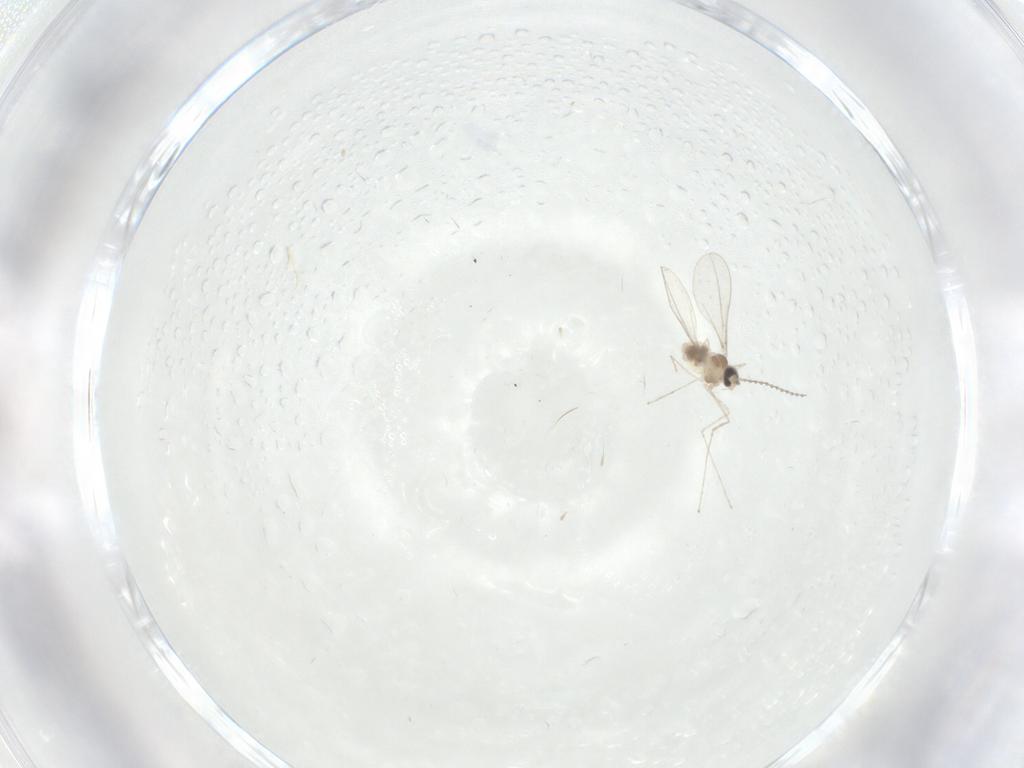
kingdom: Animalia
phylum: Arthropoda
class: Insecta
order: Diptera
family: Cecidomyiidae
